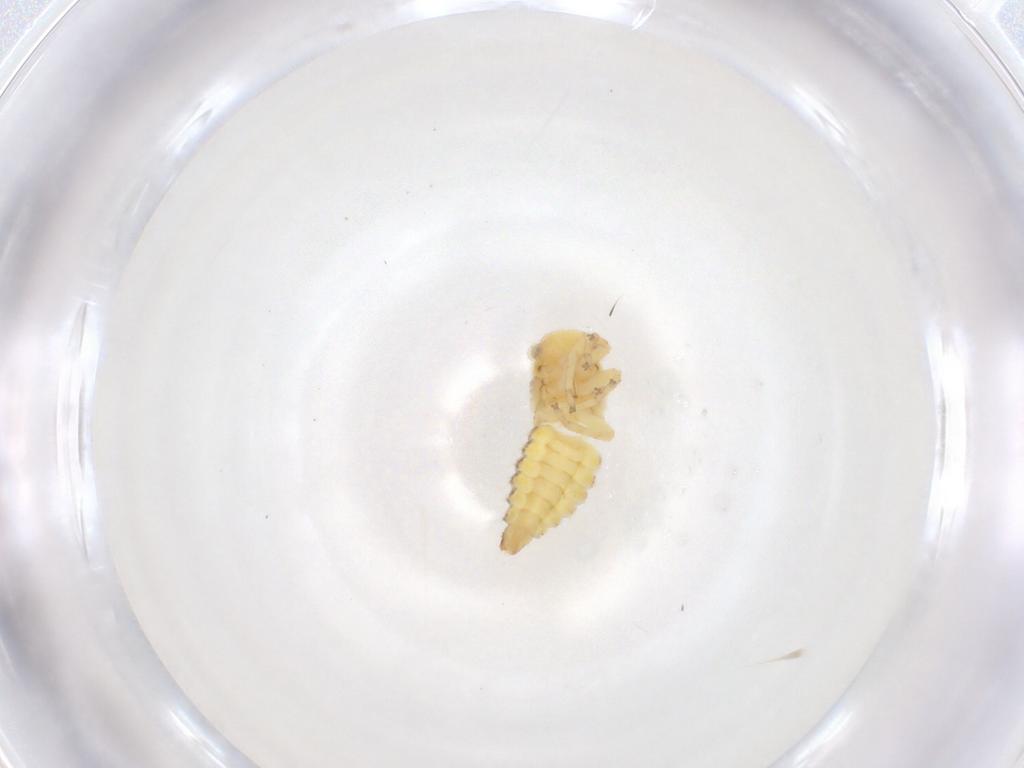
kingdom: Animalia
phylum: Arthropoda
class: Insecta
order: Hemiptera
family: Cicadellidae
